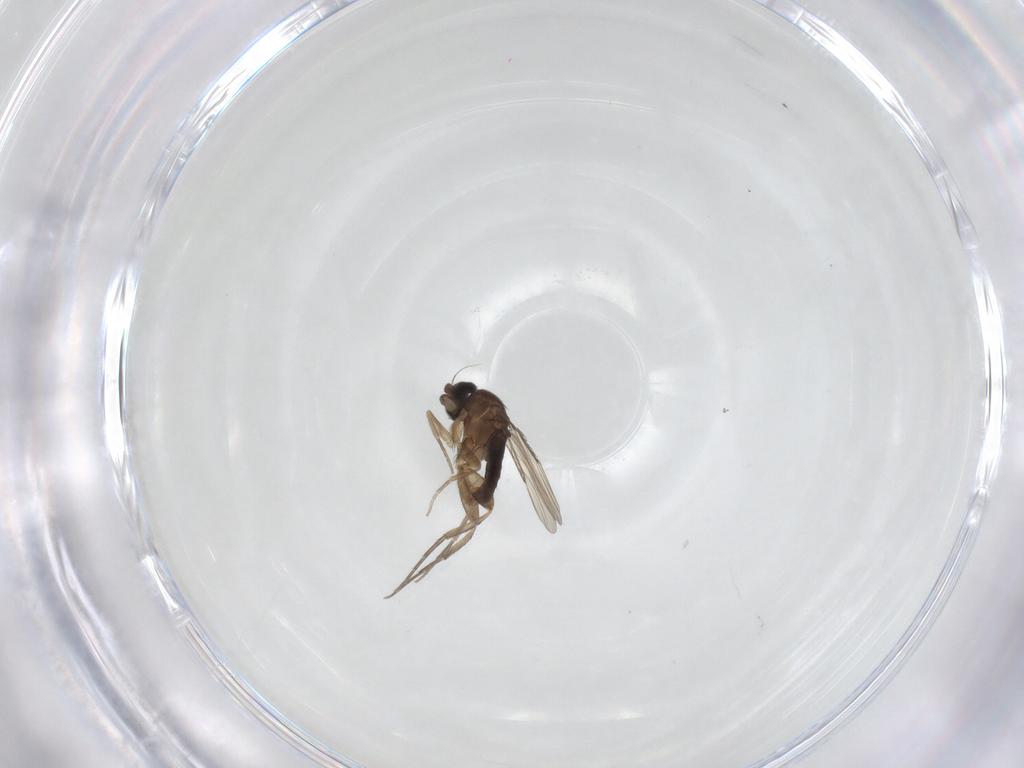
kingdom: Animalia
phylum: Arthropoda
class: Insecta
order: Diptera
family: Phoridae
